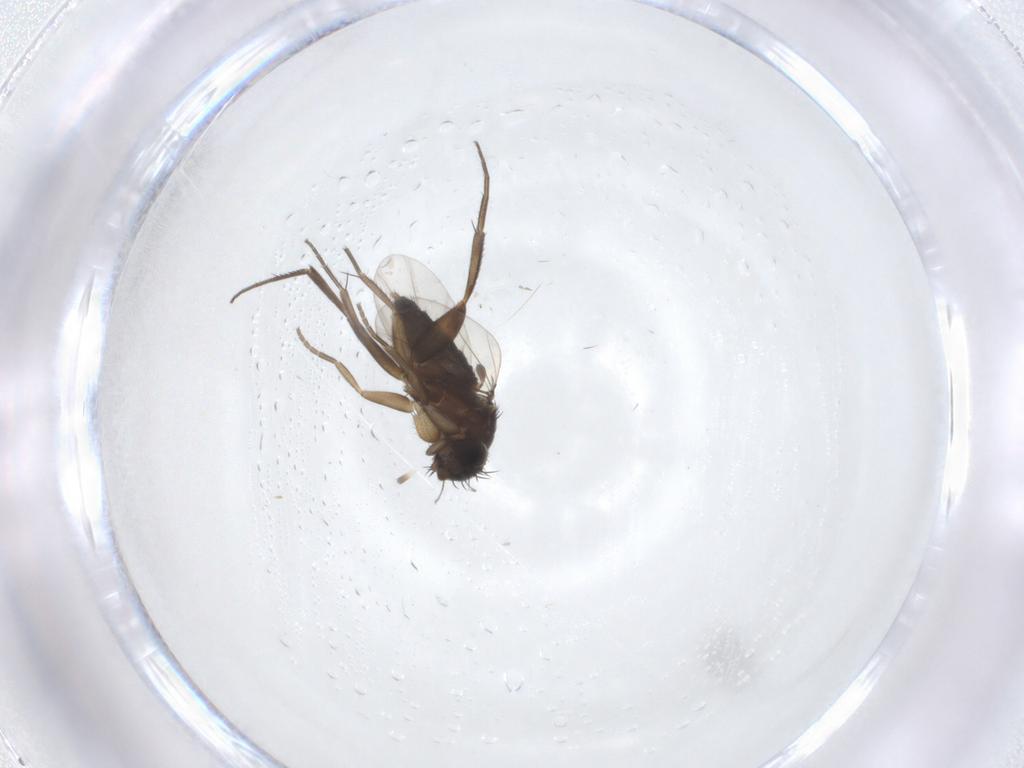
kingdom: Animalia
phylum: Arthropoda
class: Insecta
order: Diptera
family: Phoridae
